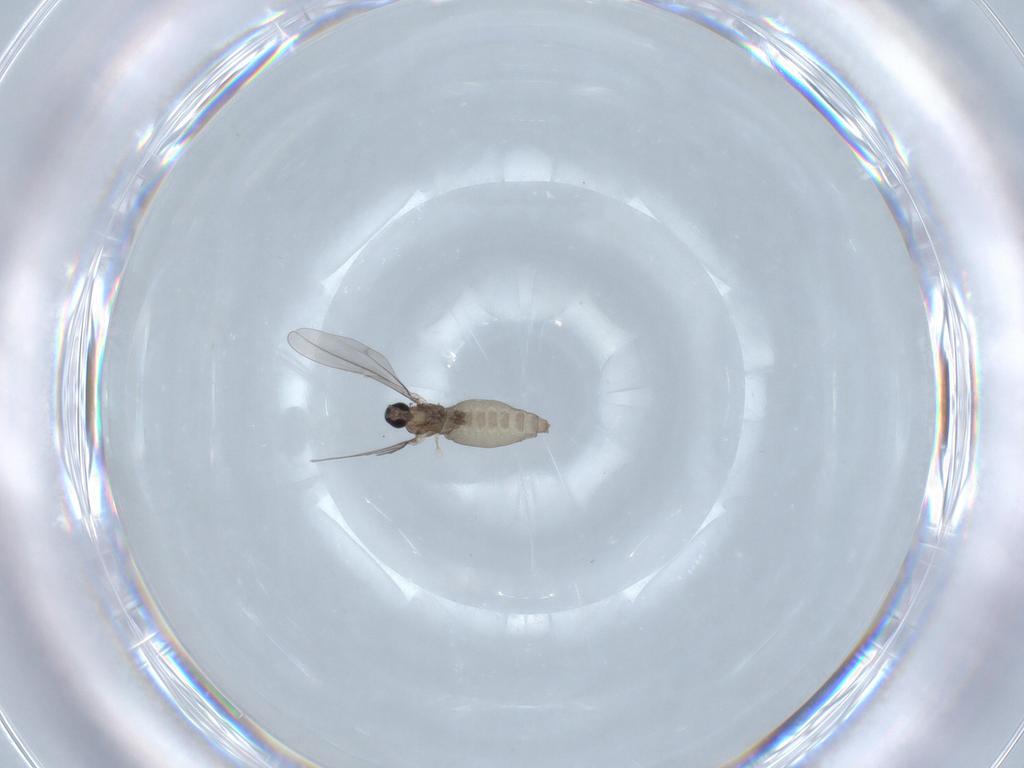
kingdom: Animalia
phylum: Arthropoda
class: Insecta
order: Diptera
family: Cecidomyiidae
